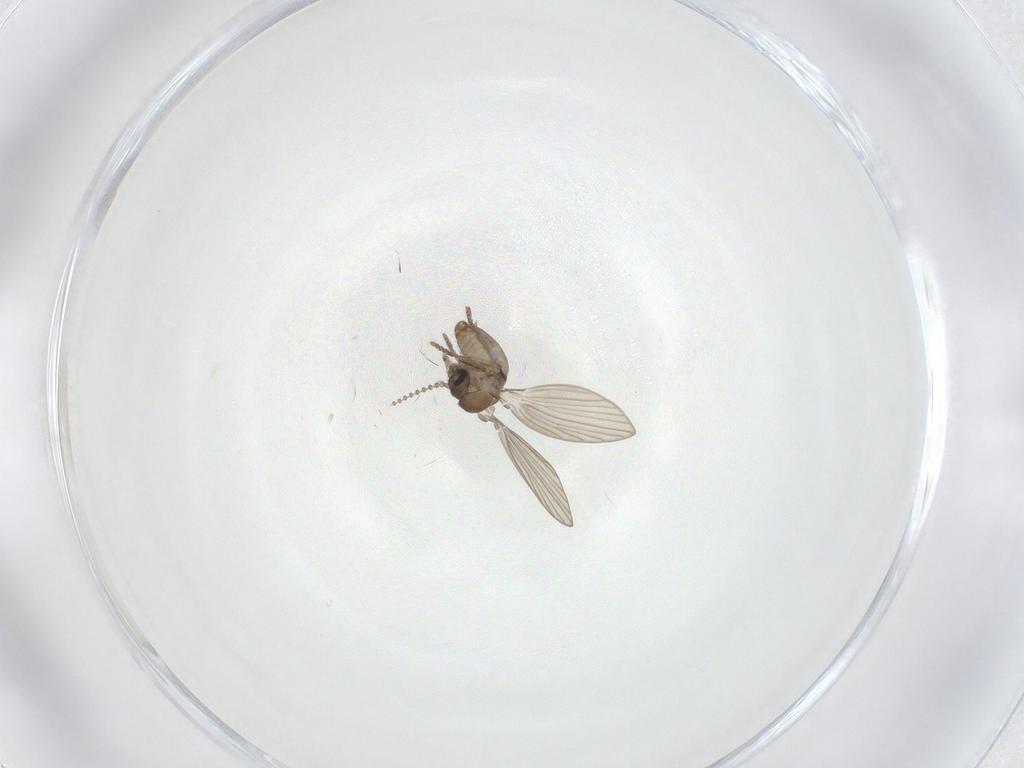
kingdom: Animalia
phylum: Arthropoda
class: Insecta
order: Diptera
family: Psychodidae
